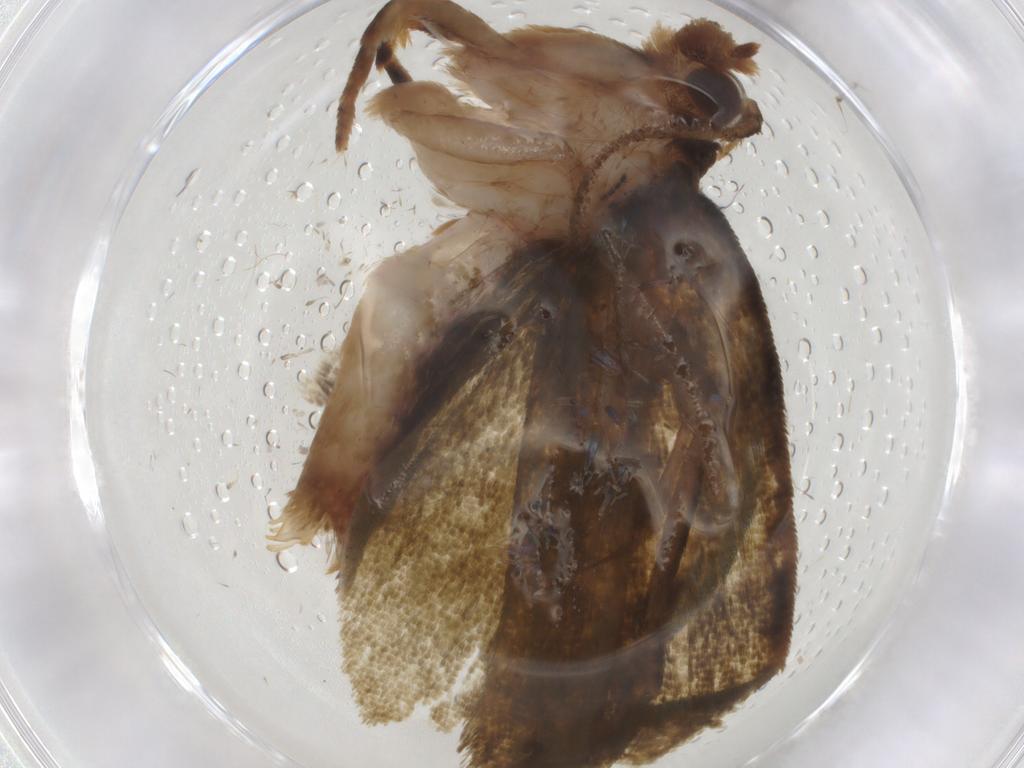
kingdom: Animalia
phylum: Arthropoda
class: Insecta
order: Lepidoptera
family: Geometridae
